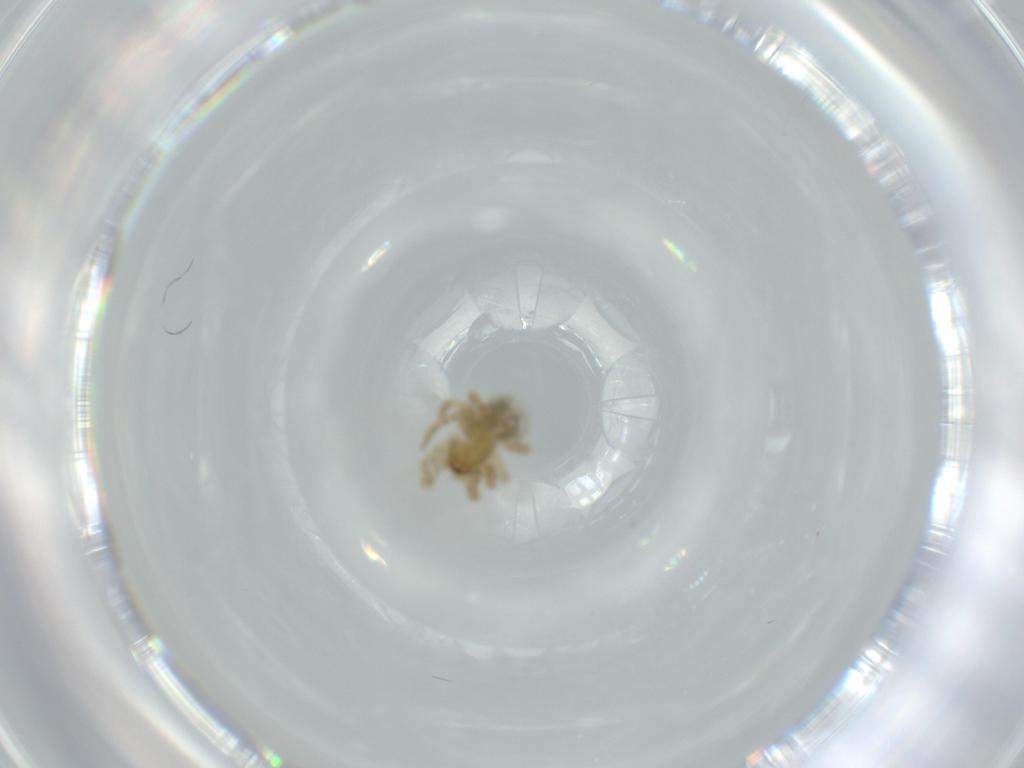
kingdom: Animalia
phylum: Arthropoda
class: Arachnida
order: Araneae
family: Theridiidae
